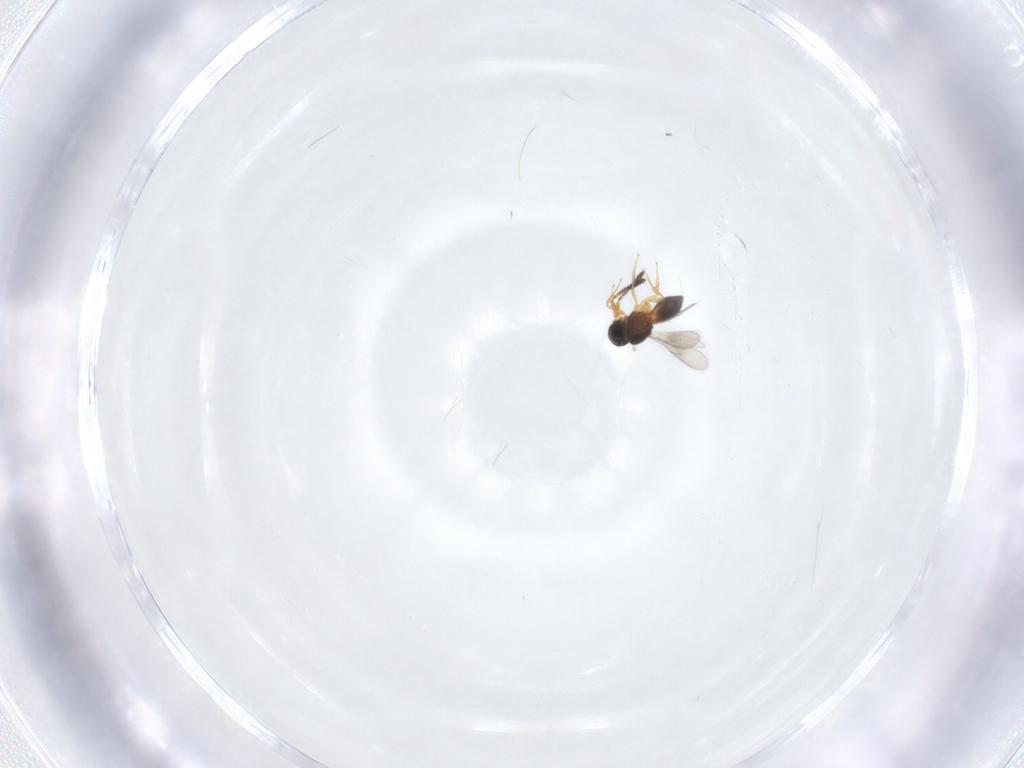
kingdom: Animalia
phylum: Arthropoda
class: Insecta
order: Hymenoptera
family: Scelionidae
